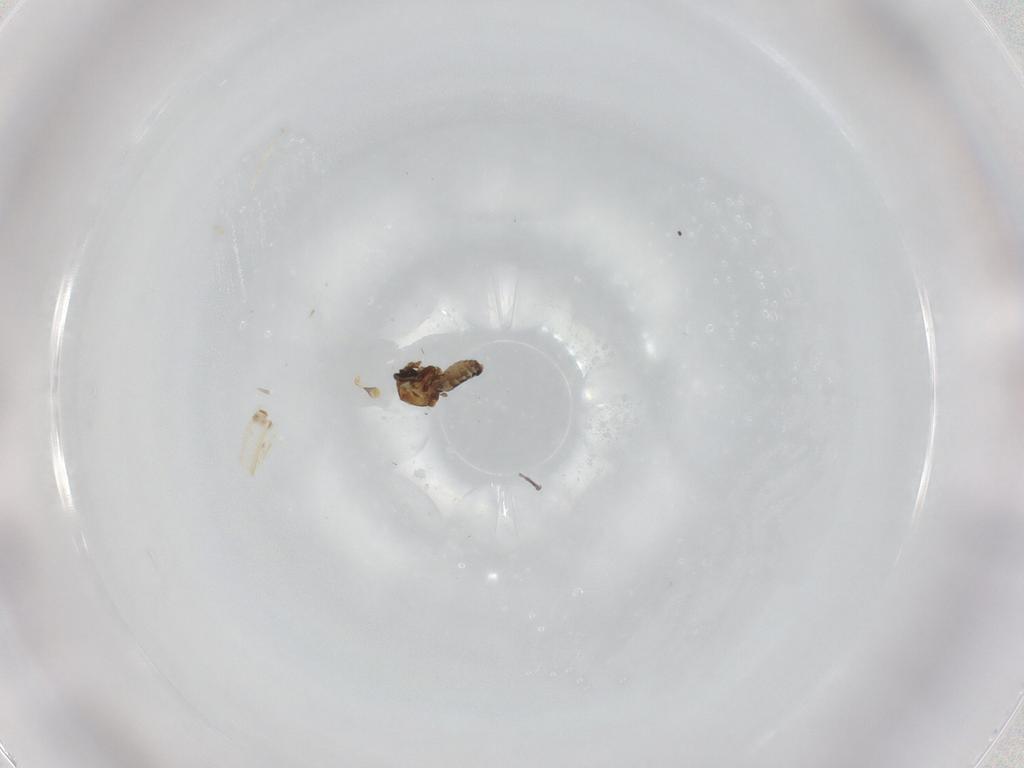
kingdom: Animalia
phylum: Arthropoda
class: Insecta
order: Diptera
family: Ceratopogonidae
